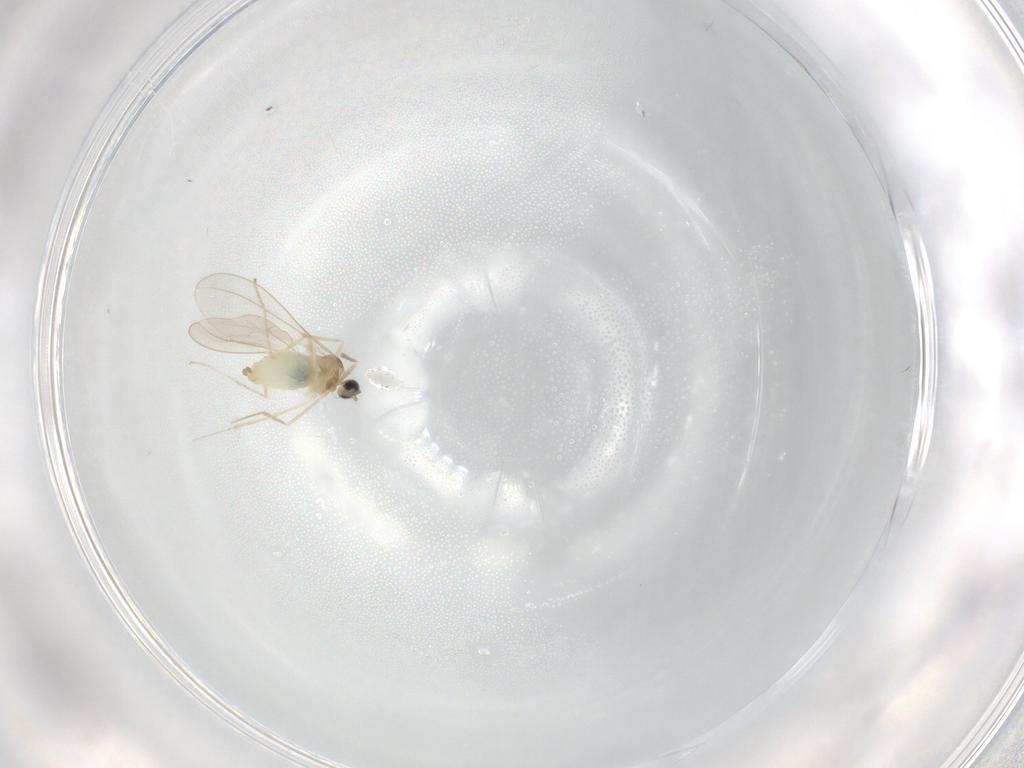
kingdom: Animalia
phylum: Arthropoda
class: Insecta
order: Diptera
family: Cecidomyiidae
